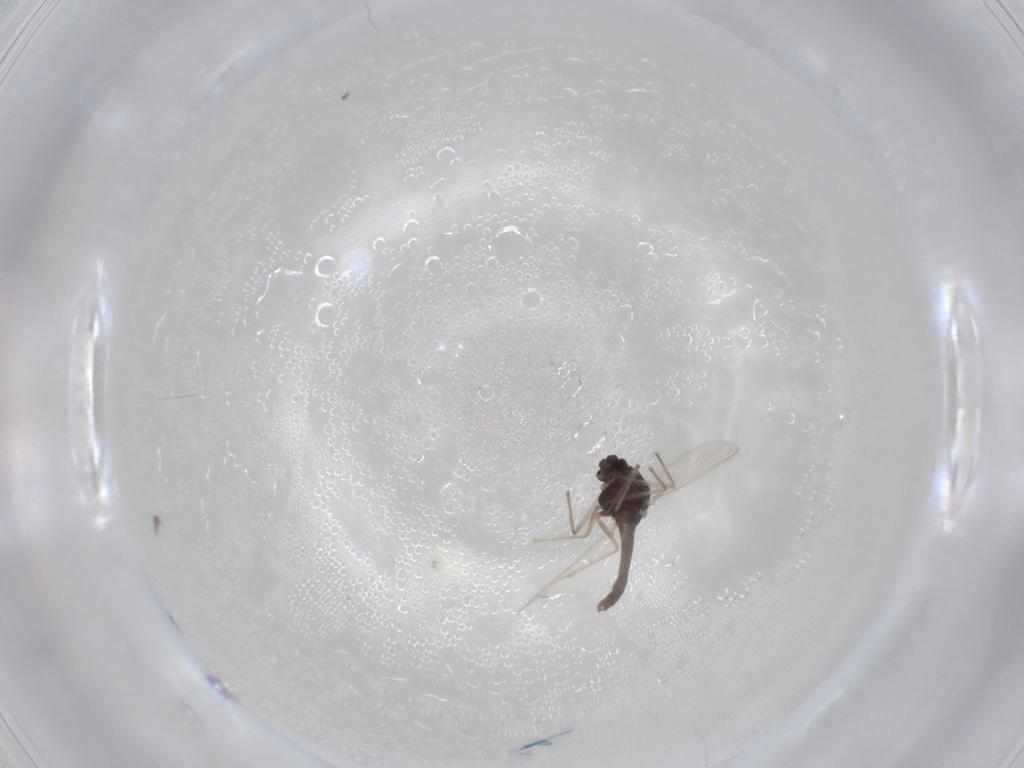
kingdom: Animalia
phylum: Arthropoda
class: Insecta
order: Diptera
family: Chironomidae
